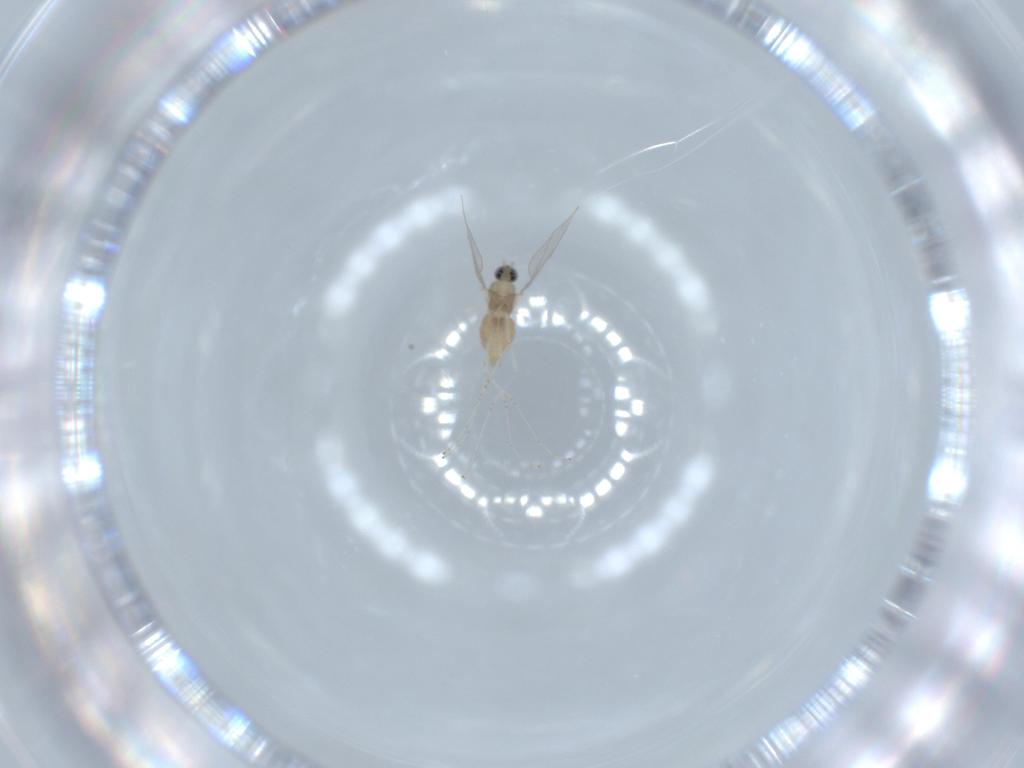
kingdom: Animalia
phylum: Arthropoda
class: Insecta
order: Diptera
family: Cecidomyiidae
